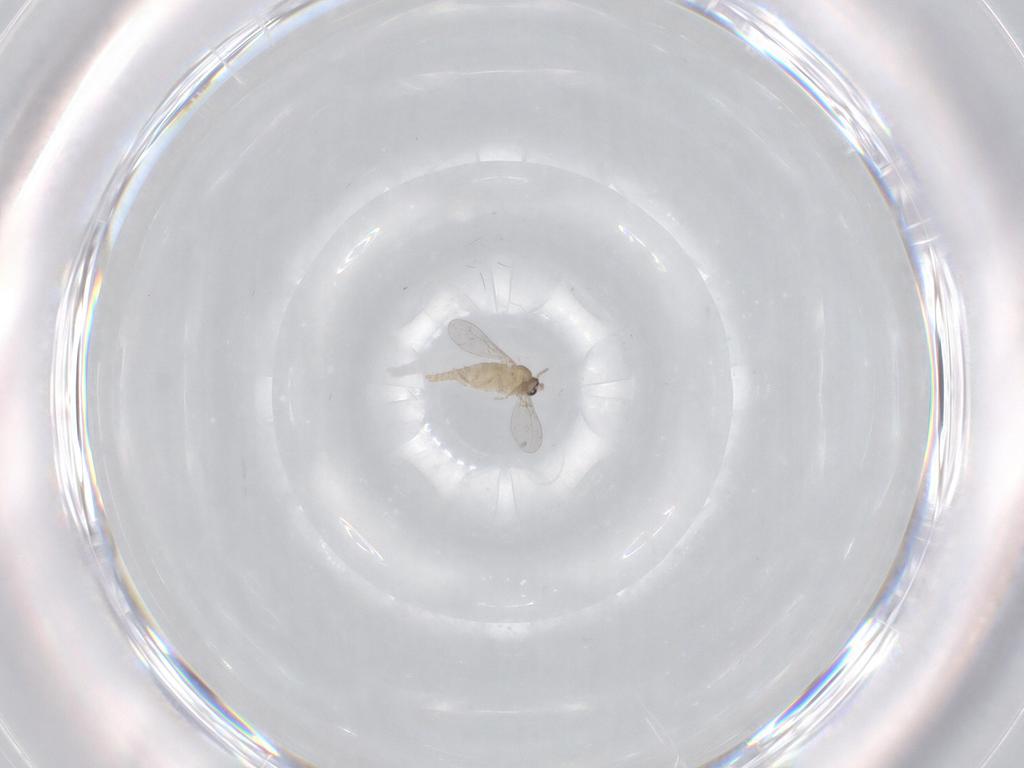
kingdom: Animalia
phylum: Arthropoda
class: Insecta
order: Diptera
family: Cecidomyiidae
